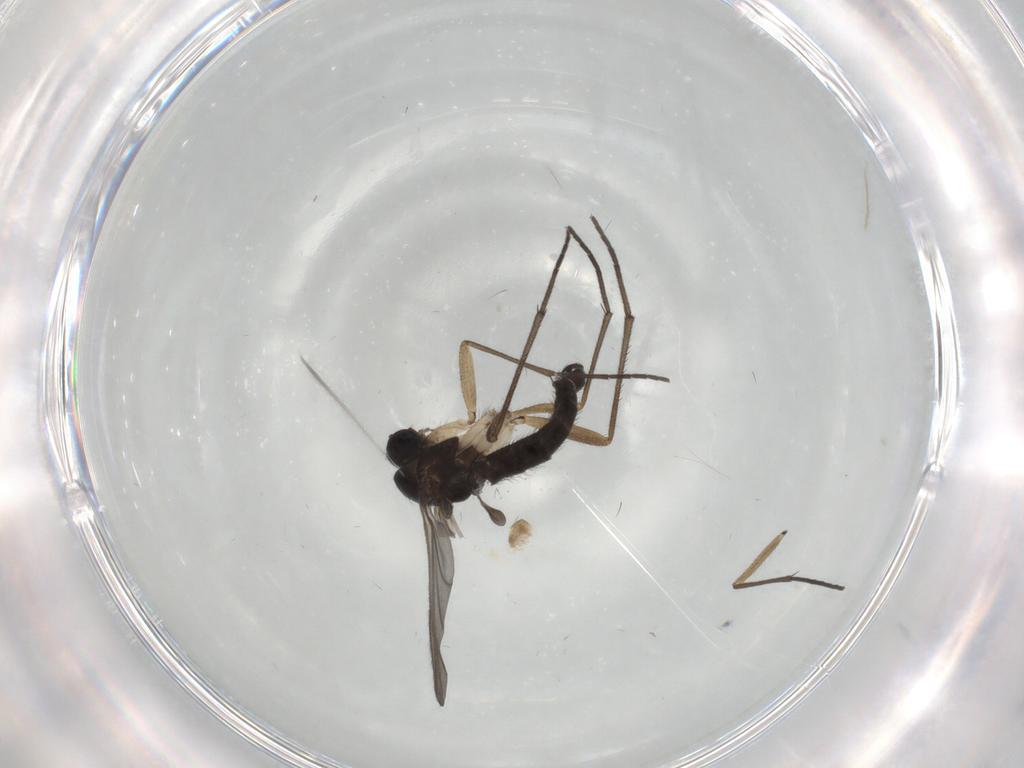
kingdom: Animalia
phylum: Arthropoda
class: Insecta
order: Diptera
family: Sciaridae
